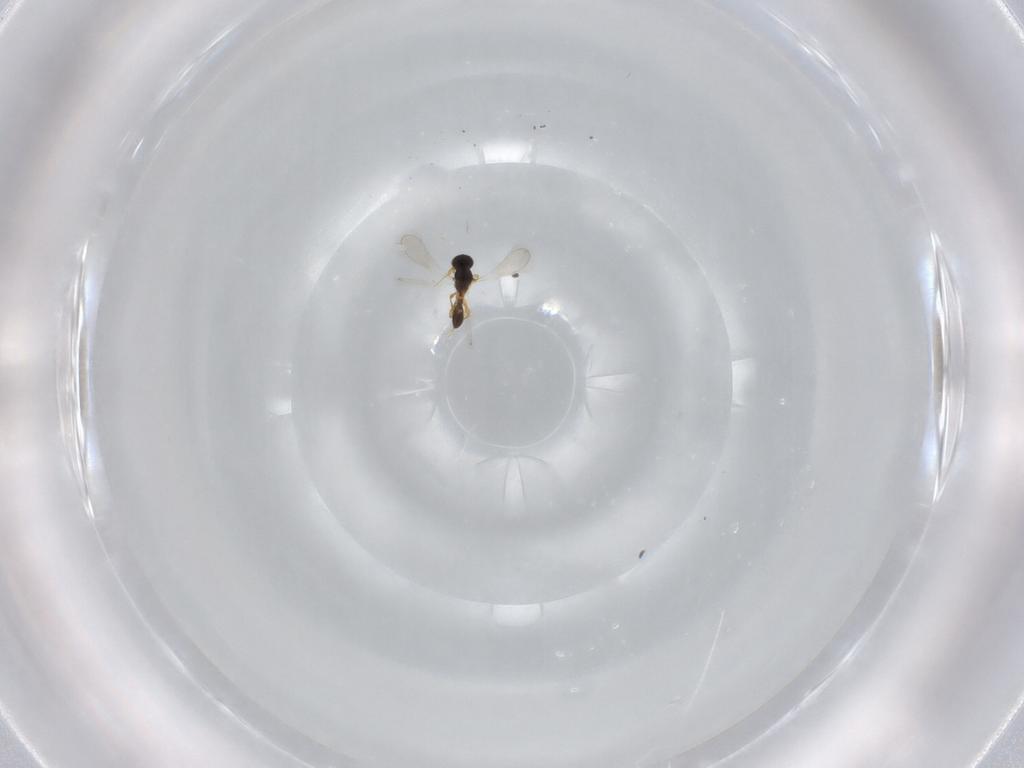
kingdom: Animalia
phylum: Arthropoda
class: Insecta
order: Hymenoptera
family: Platygastridae
